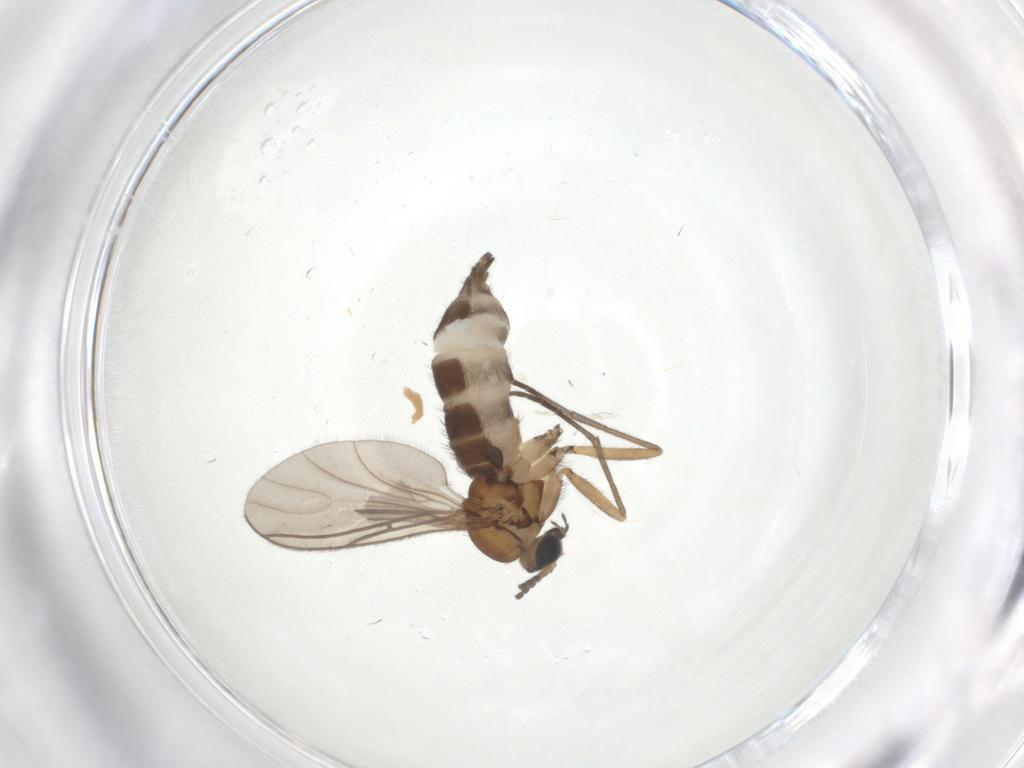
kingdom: Animalia
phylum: Arthropoda
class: Insecta
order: Diptera
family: Sciaridae
